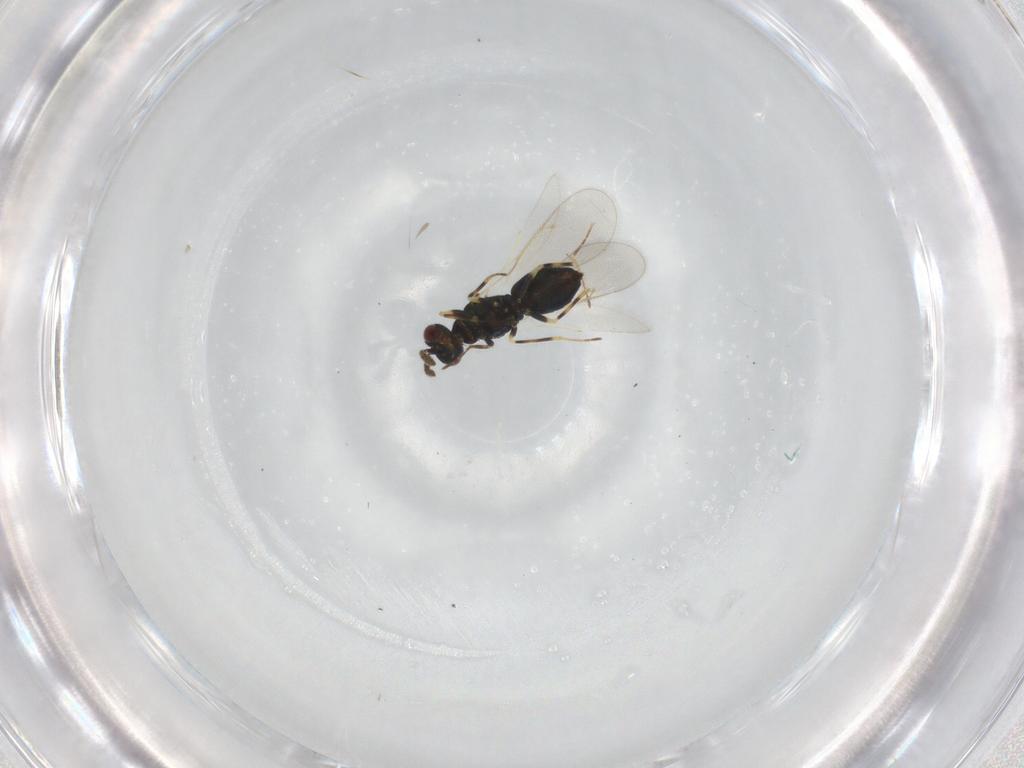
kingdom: Animalia
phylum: Arthropoda
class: Insecta
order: Hymenoptera
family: Eulophidae
